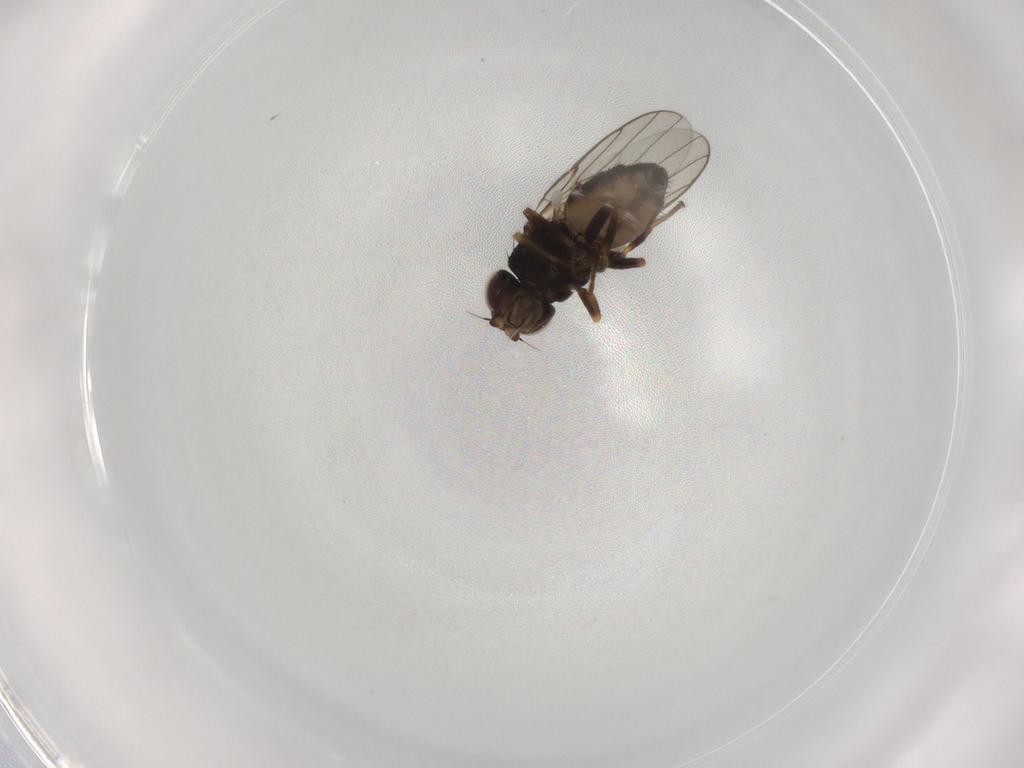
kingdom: Animalia
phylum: Arthropoda
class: Insecta
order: Diptera
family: Chloropidae
